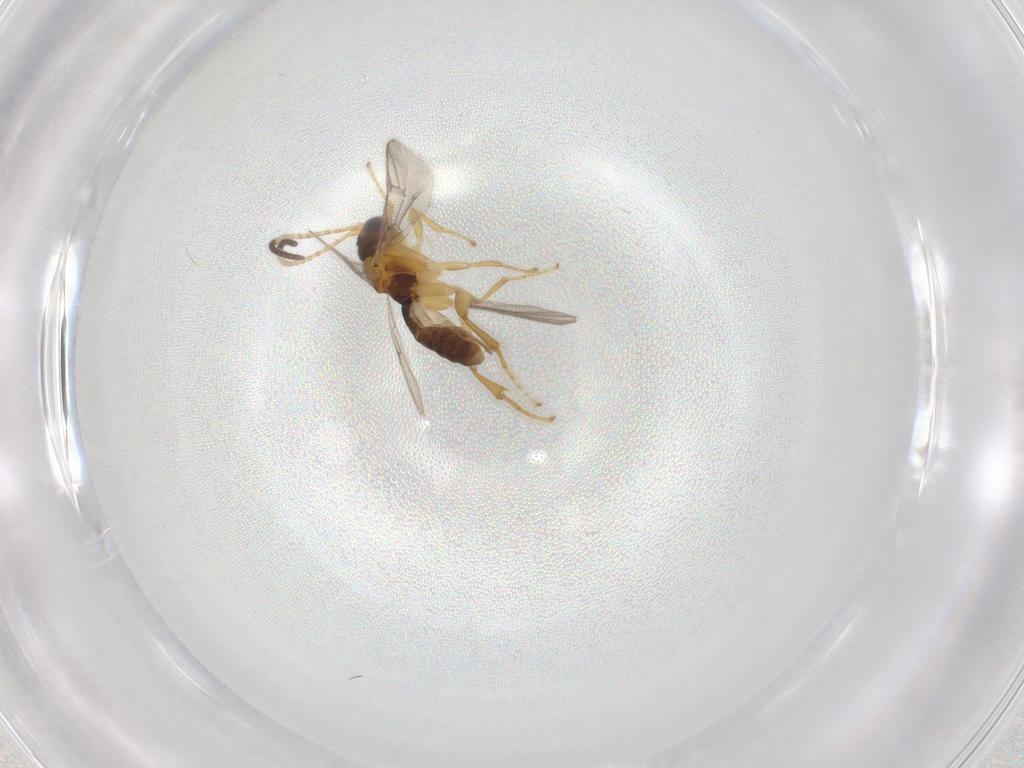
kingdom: Animalia
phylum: Arthropoda
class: Insecta
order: Hymenoptera
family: Ichneumonidae
